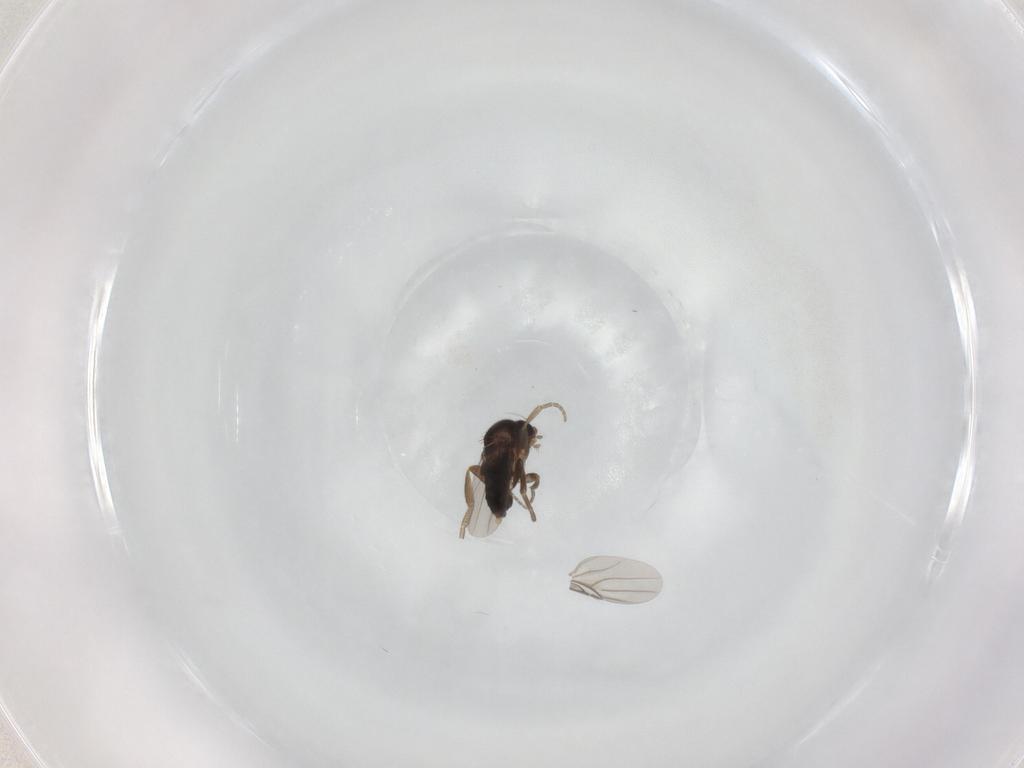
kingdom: Animalia
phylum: Arthropoda
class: Insecta
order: Diptera
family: Phoridae
